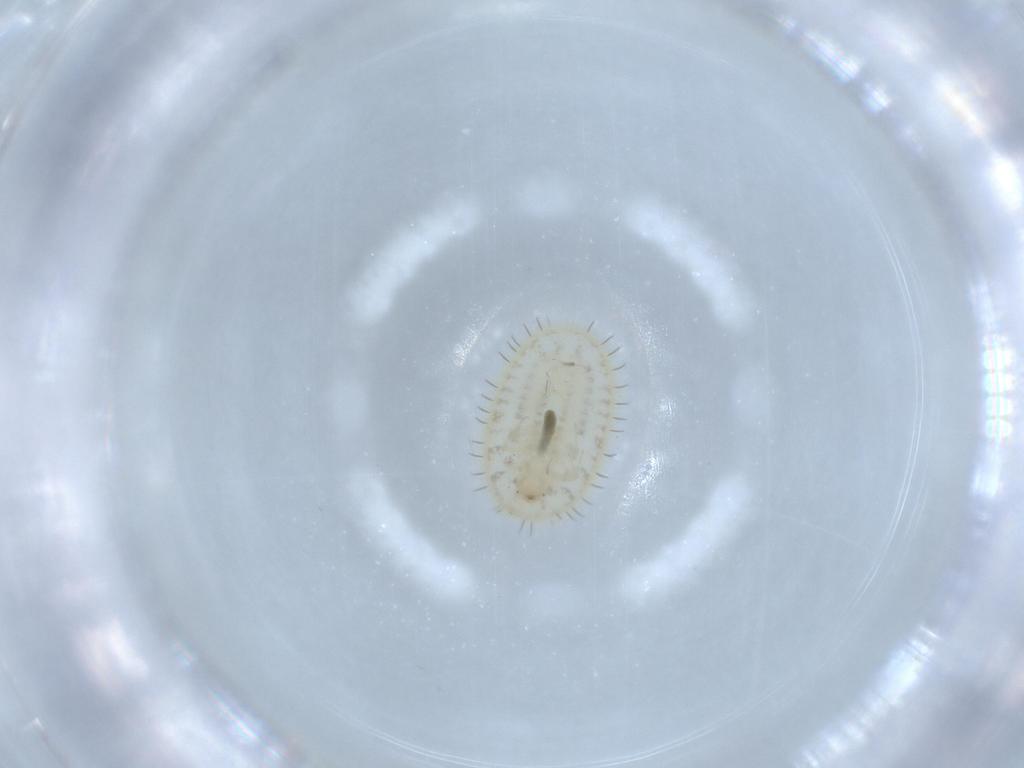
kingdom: Animalia
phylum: Arthropoda
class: Insecta
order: Coleoptera
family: Corylophidae
